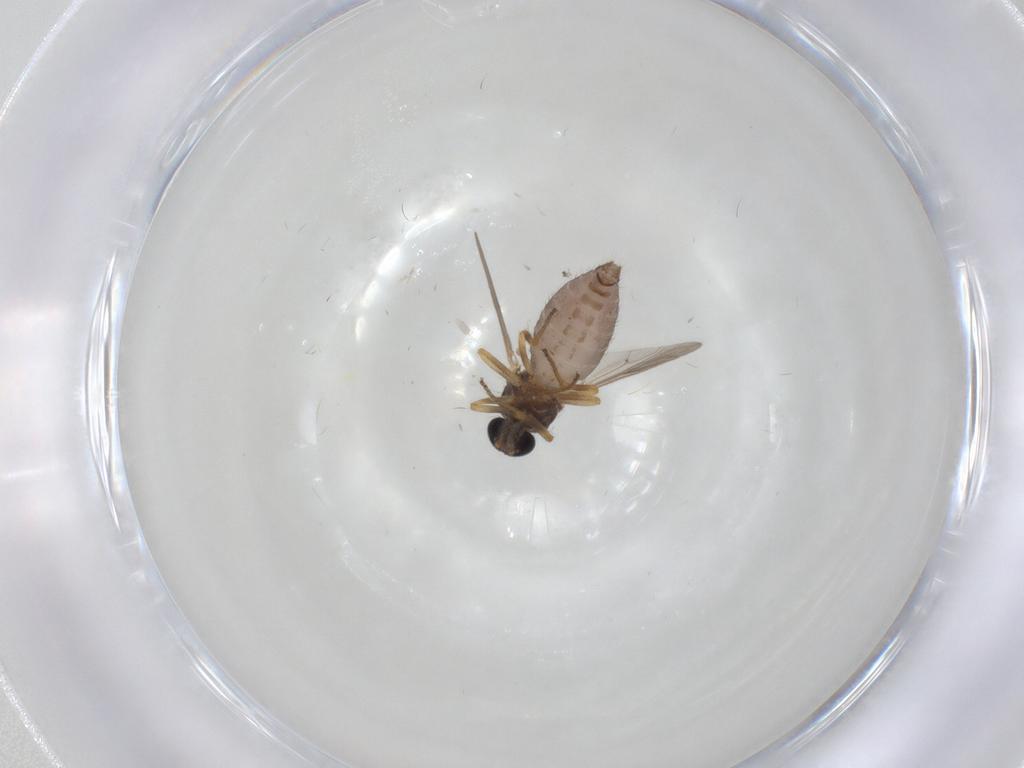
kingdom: Animalia
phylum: Arthropoda
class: Insecta
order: Diptera
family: Ceratopogonidae
